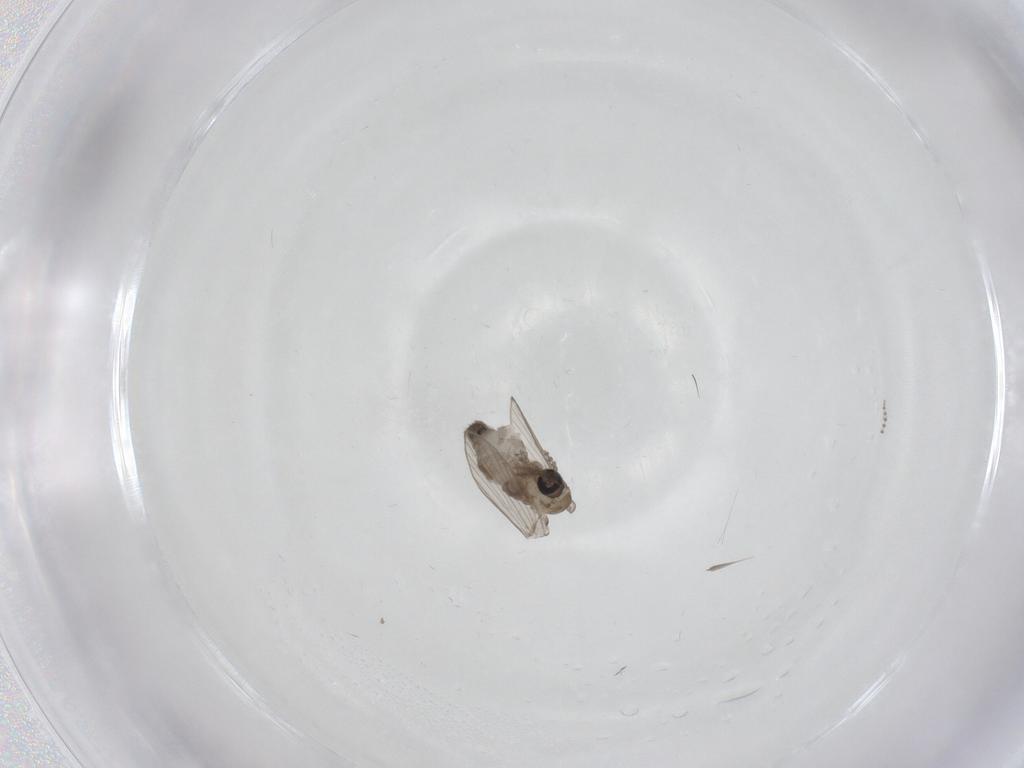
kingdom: Animalia
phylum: Arthropoda
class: Insecta
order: Diptera
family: Psychodidae
